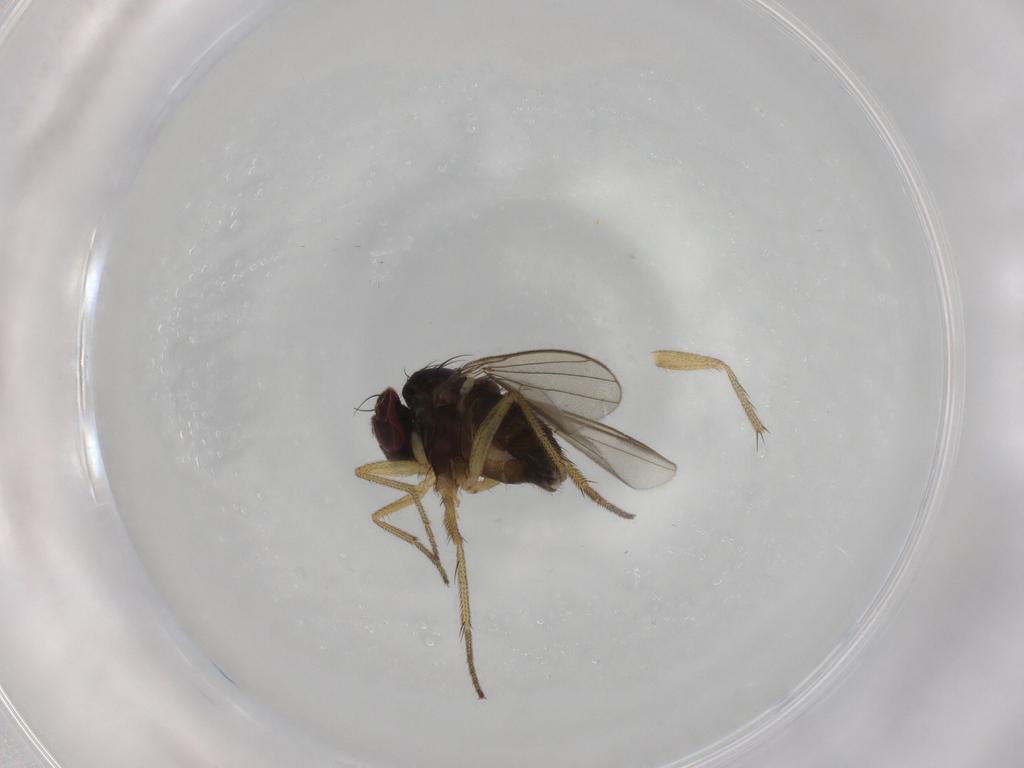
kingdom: Animalia
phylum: Arthropoda
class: Insecta
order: Diptera
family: Dolichopodidae
